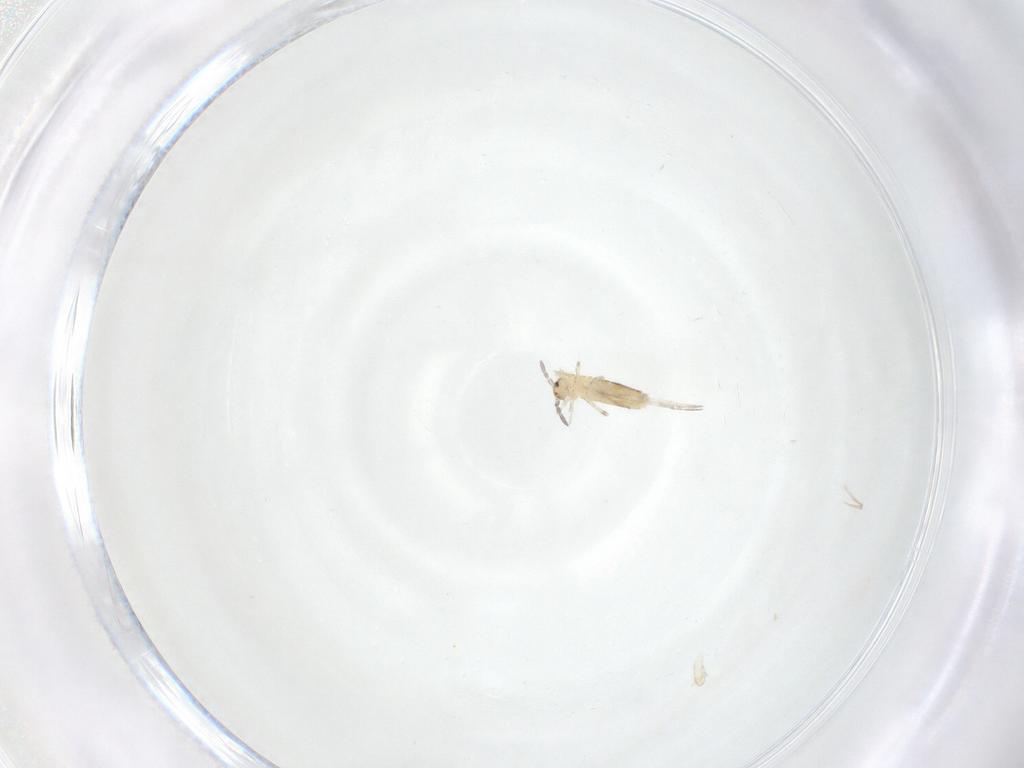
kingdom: Animalia
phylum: Arthropoda
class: Collembola
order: Entomobryomorpha
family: Entomobryidae
